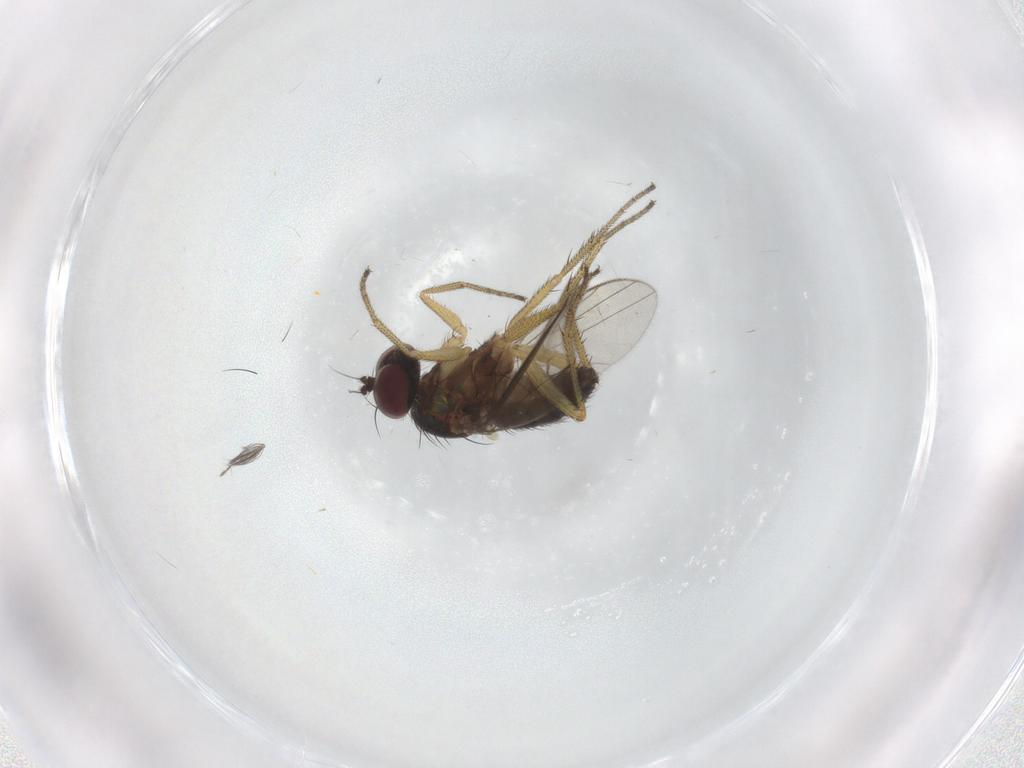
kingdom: Animalia
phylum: Arthropoda
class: Insecta
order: Diptera
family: Chironomidae
